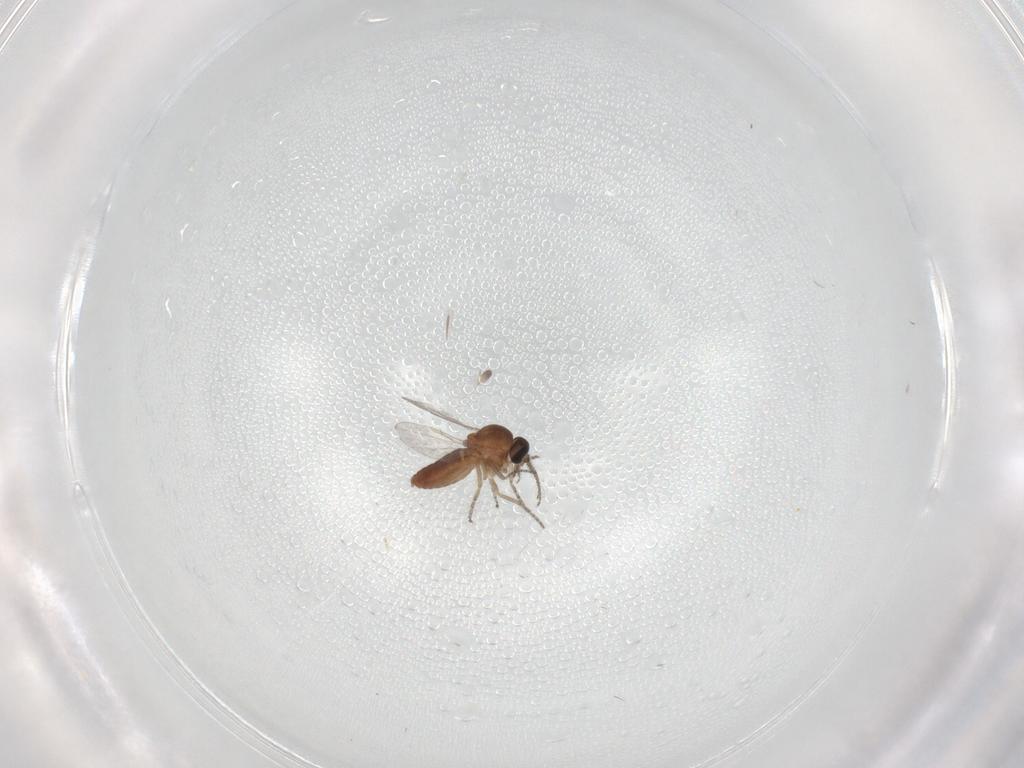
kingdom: Animalia
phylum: Arthropoda
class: Insecta
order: Diptera
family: Ceratopogonidae
